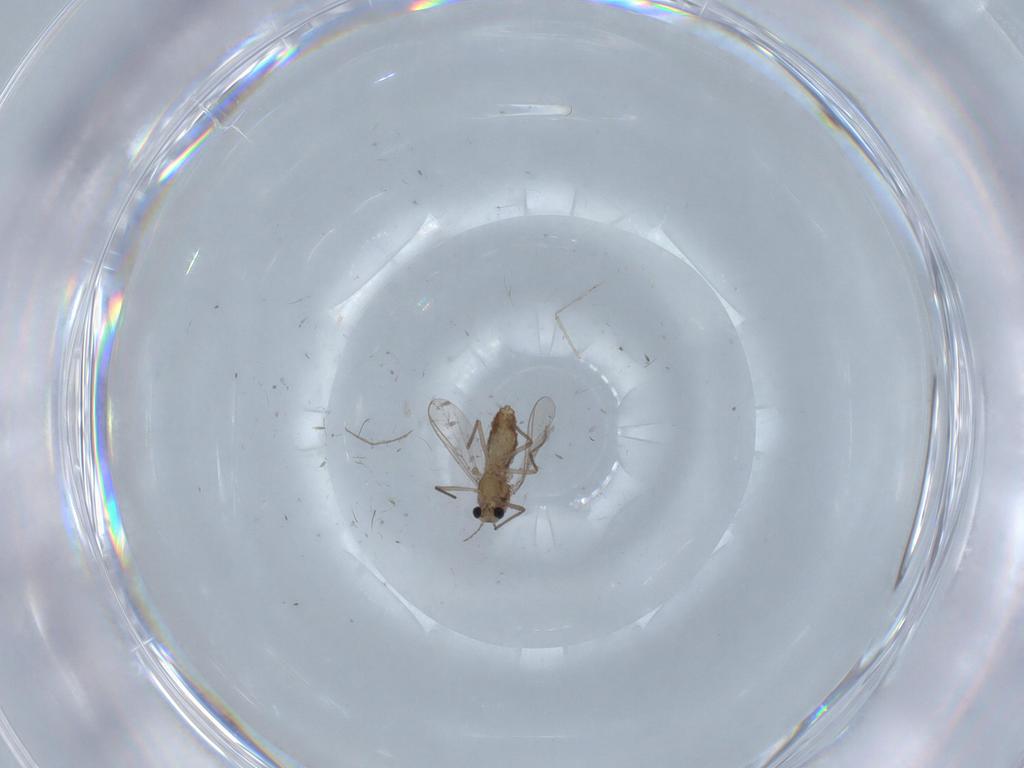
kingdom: Animalia
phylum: Arthropoda
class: Insecta
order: Diptera
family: Chironomidae
